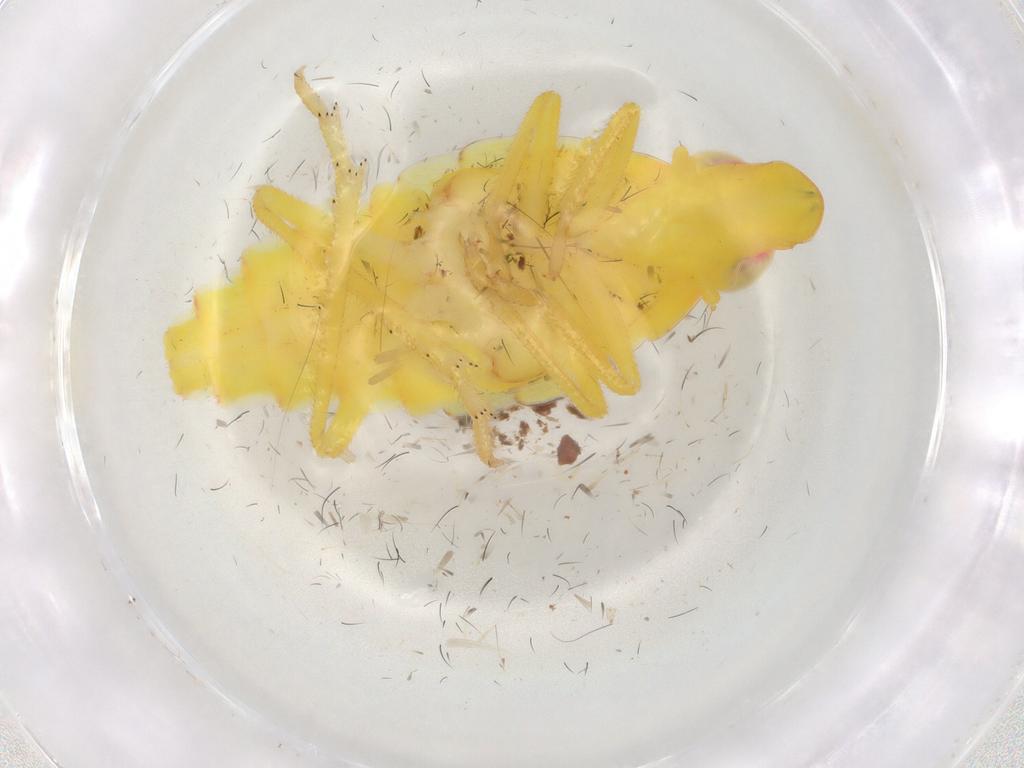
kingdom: Animalia
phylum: Arthropoda
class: Insecta
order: Hemiptera
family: Tropiduchidae
